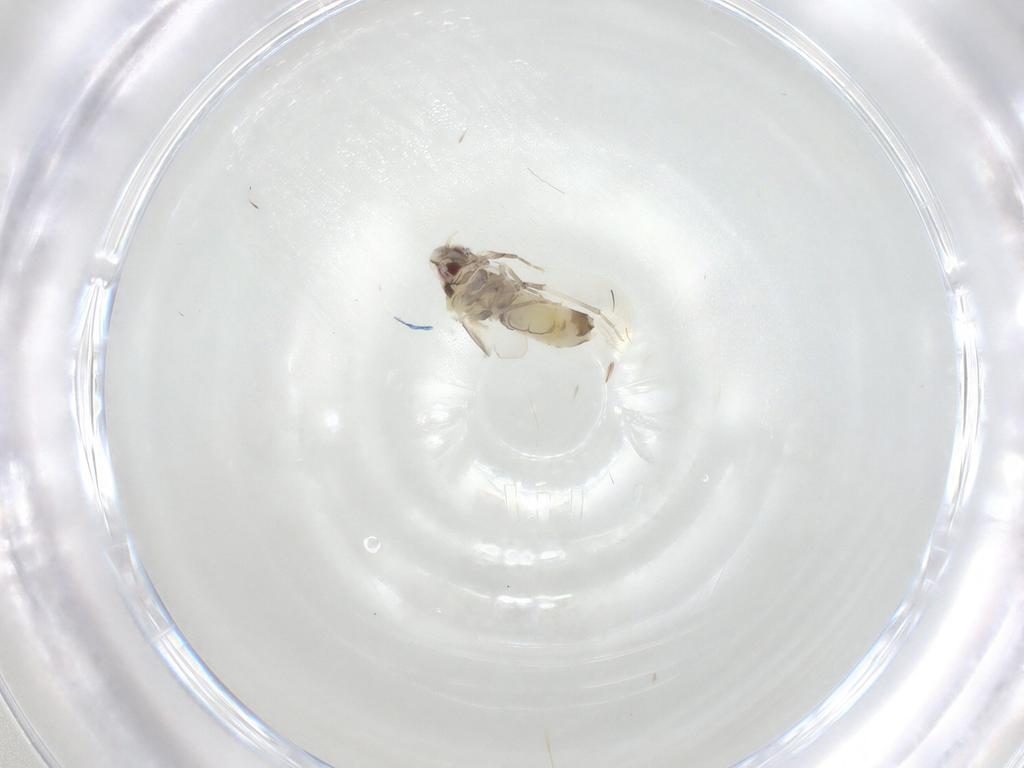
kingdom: Animalia
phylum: Arthropoda
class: Insecta
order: Hemiptera
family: Aleyrodidae
